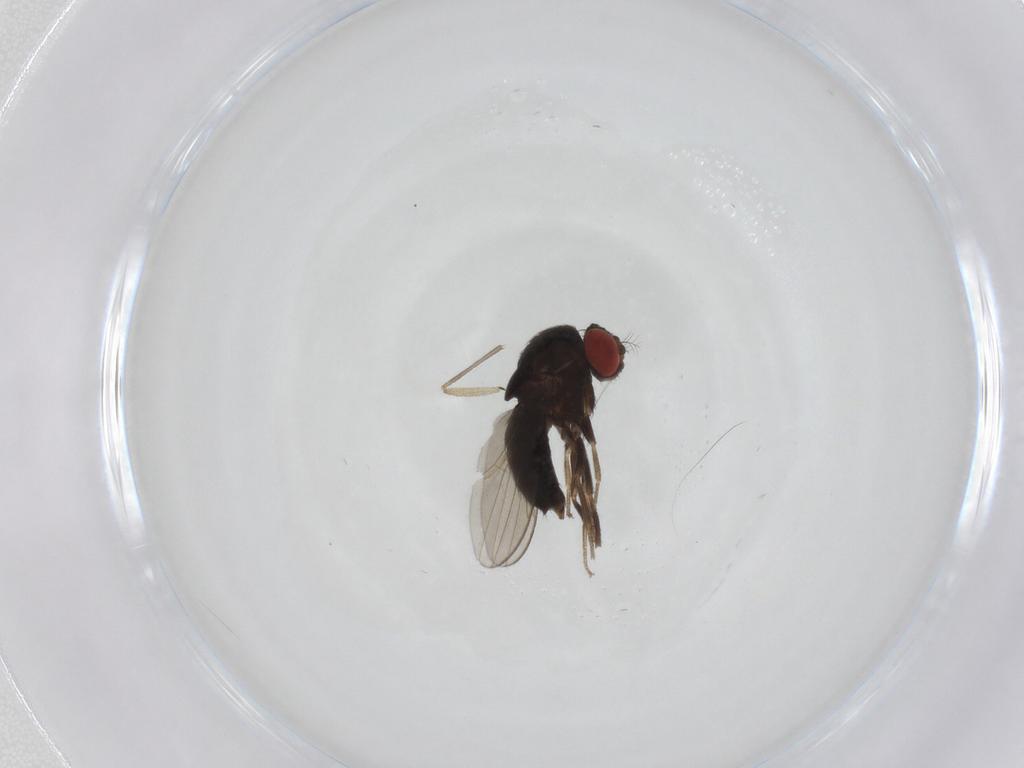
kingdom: Animalia
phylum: Arthropoda
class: Insecta
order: Diptera
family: Drosophilidae
